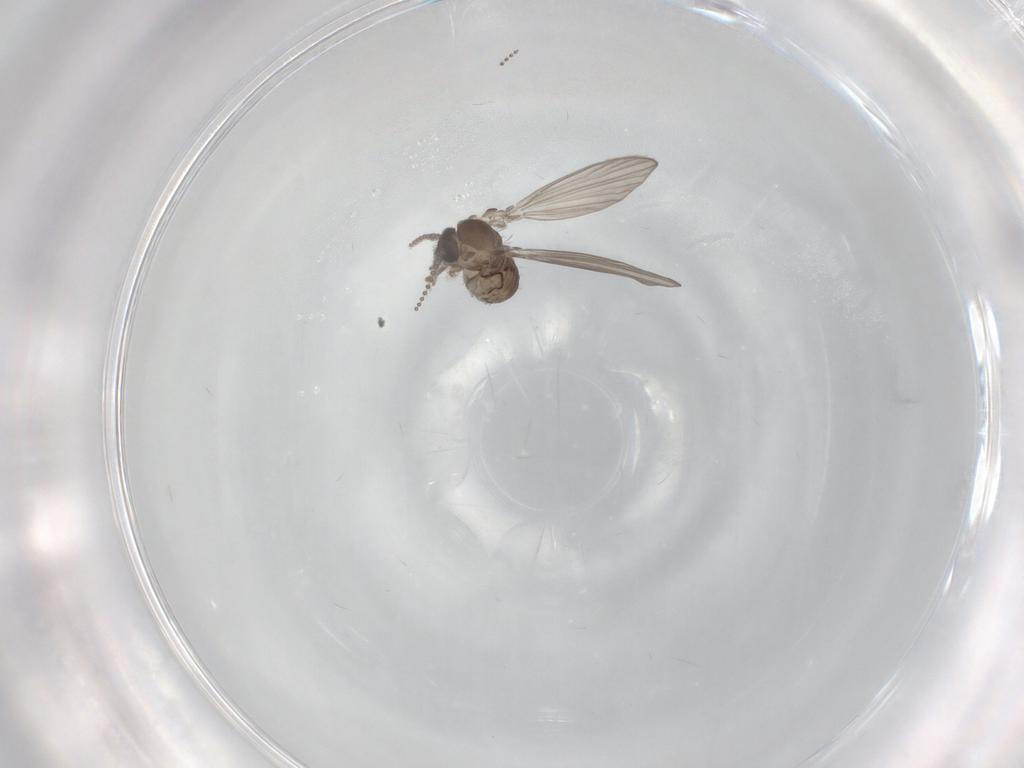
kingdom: Animalia
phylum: Arthropoda
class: Insecta
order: Diptera
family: Psychodidae
